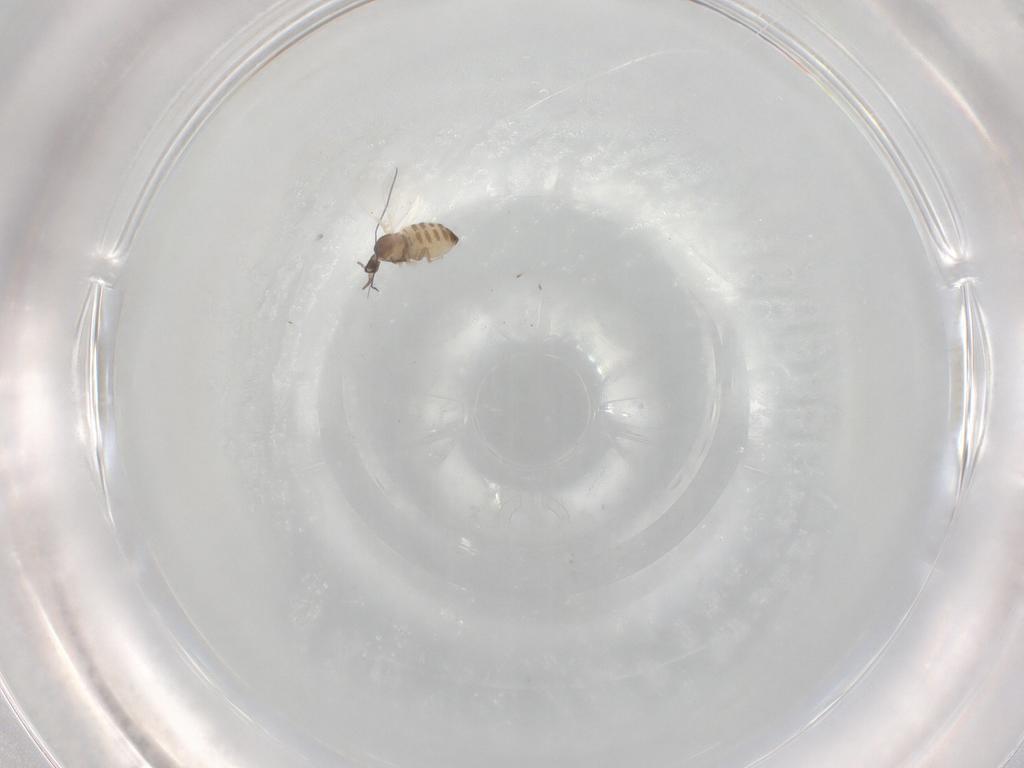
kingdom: Animalia
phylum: Arthropoda
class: Insecta
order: Diptera
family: Cecidomyiidae
